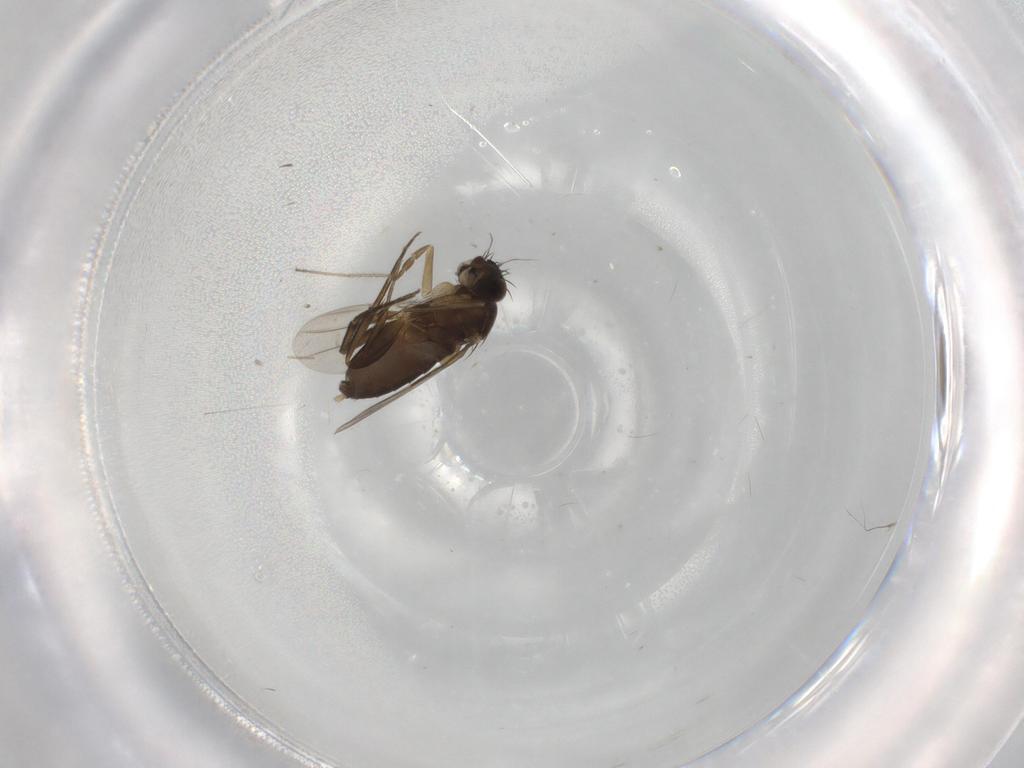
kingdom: Animalia
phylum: Arthropoda
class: Insecta
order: Diptera
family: Phoridae
